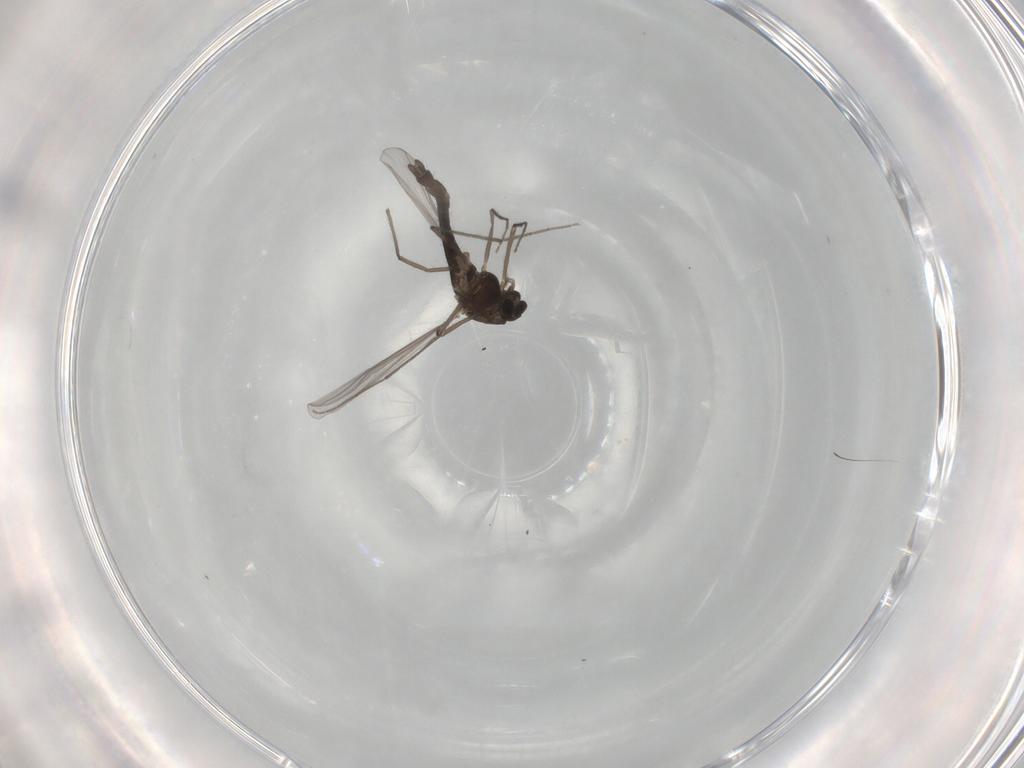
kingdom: Animalia
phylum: Arthropoda
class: Insecta
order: Diptera
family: Chironomidae
